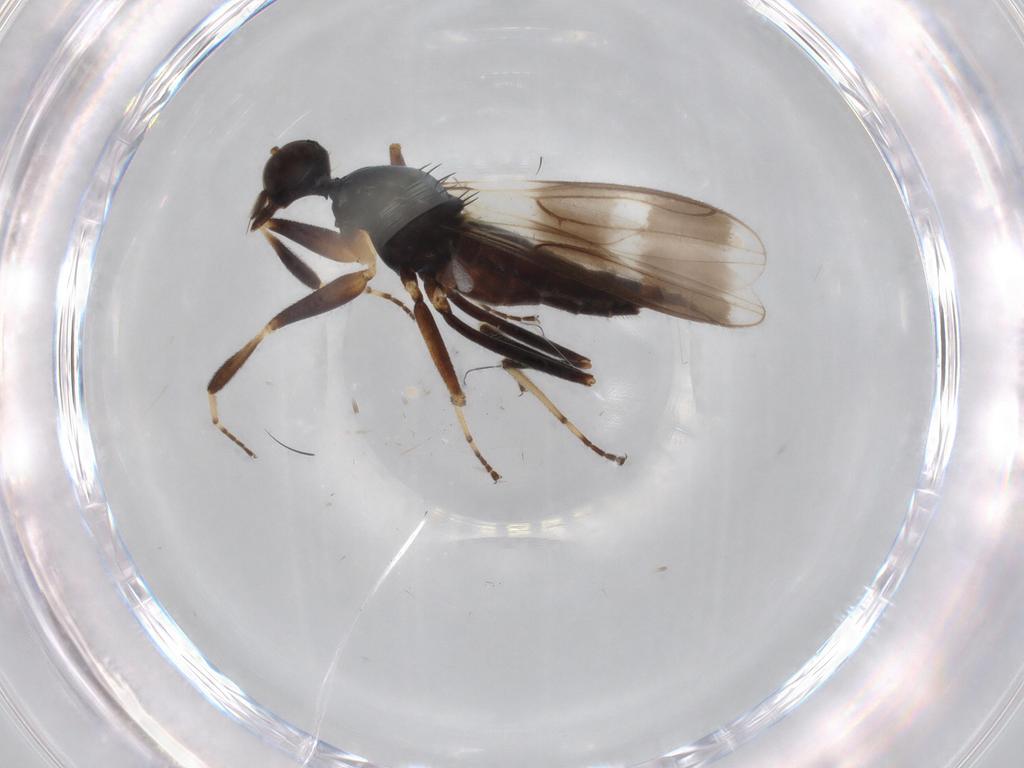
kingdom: Animalia
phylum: Arthropoda
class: Insecta
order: Diptera
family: Hybotidae
